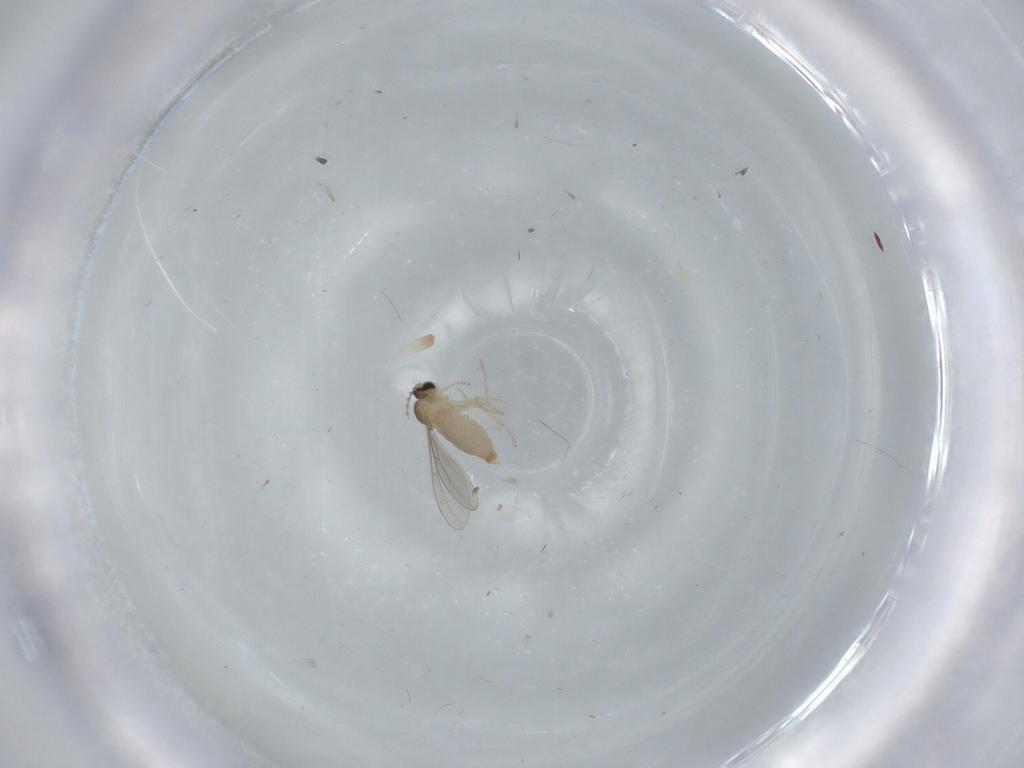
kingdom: Animalia
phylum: Arthropoda
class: Insecta
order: Diptera
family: Cecidomyiidae
